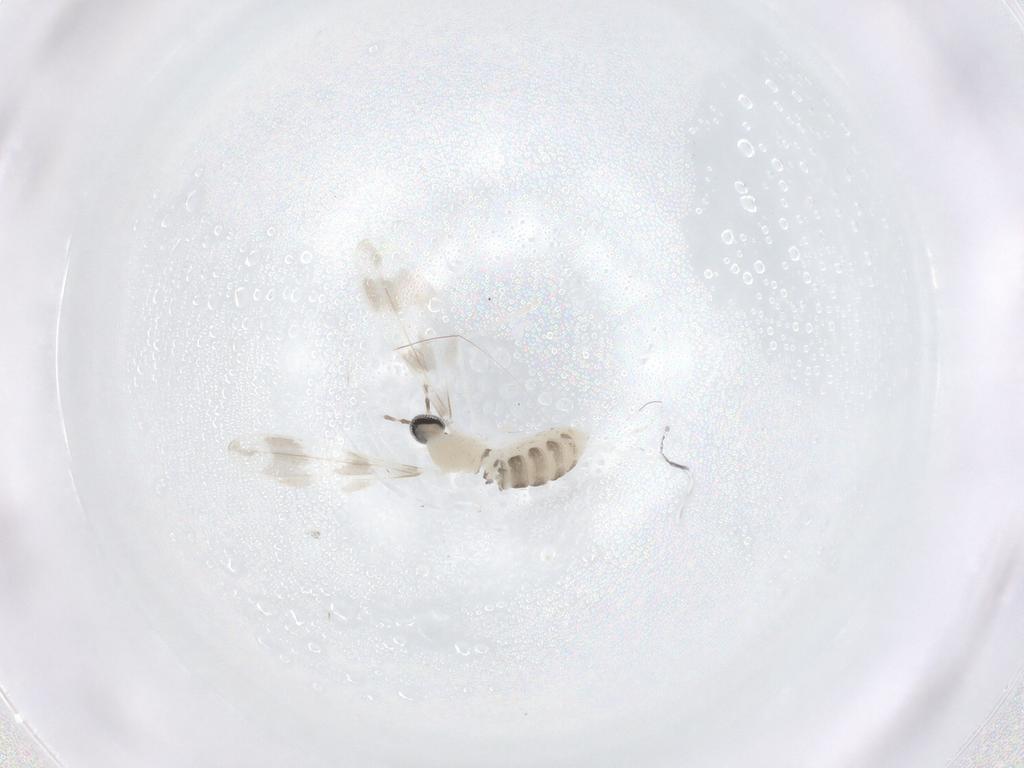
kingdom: Animalia
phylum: Arthropoda
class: Insecta
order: Diptera
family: Cecidomyiidae
